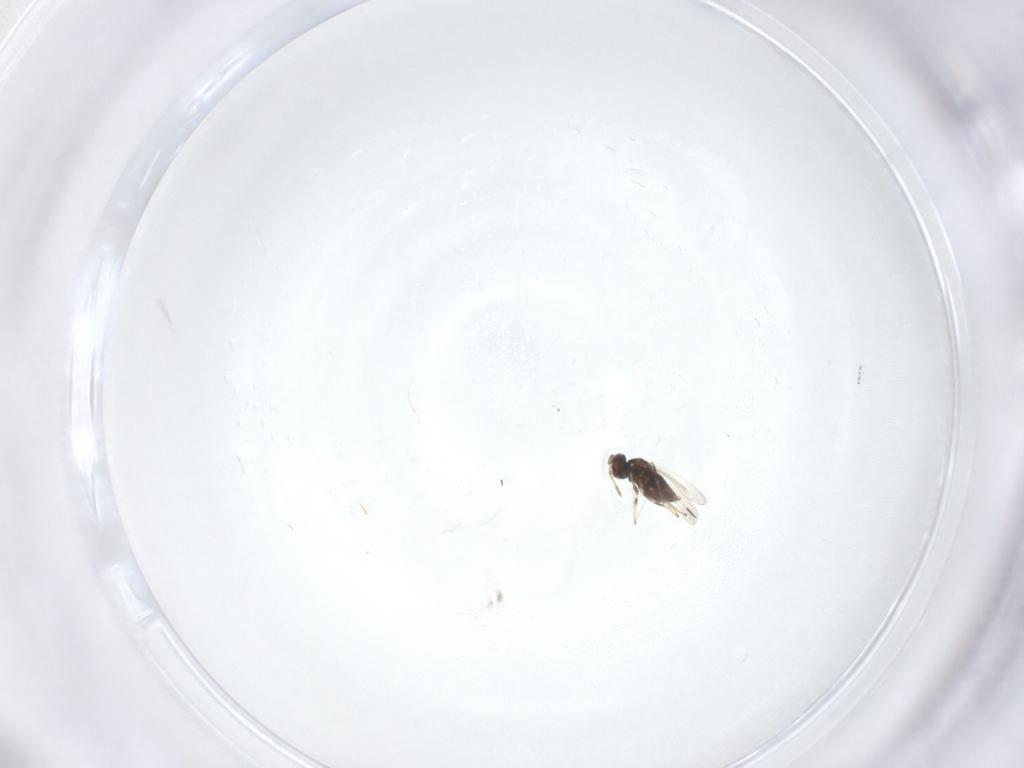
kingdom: Animalia
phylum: Arthropoda
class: Insecta
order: Hymenoptera
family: Aphelinidae
